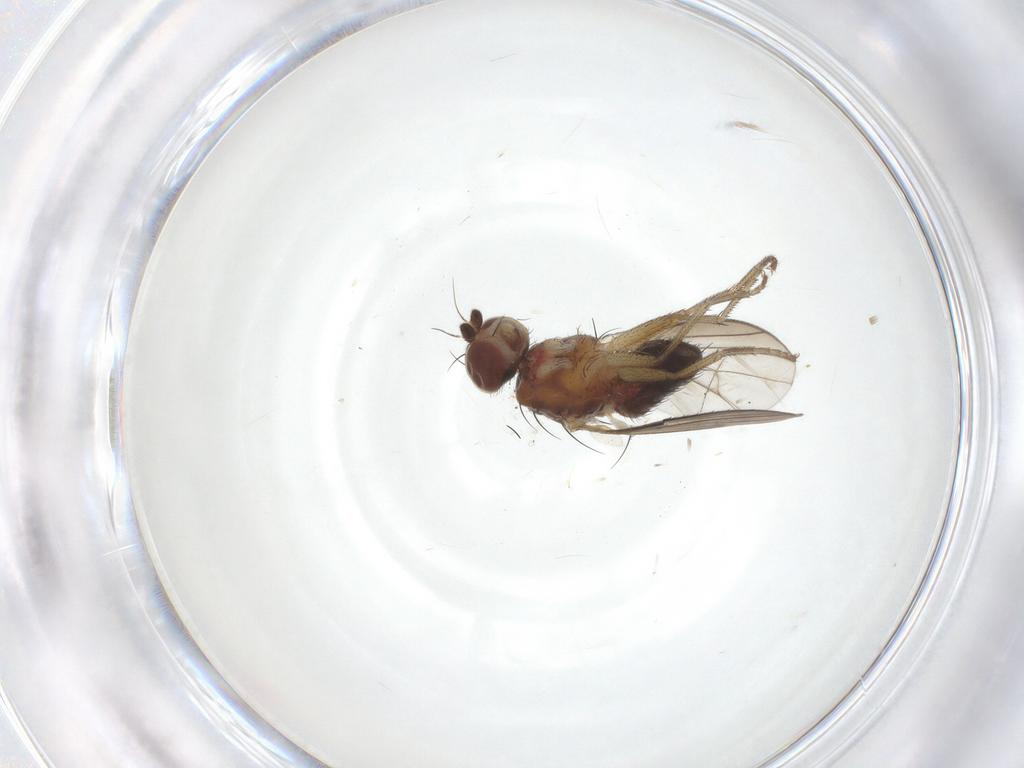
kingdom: Animalia
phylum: Arthropoda
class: Insecta
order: Diptera
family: Heleomyzidae
